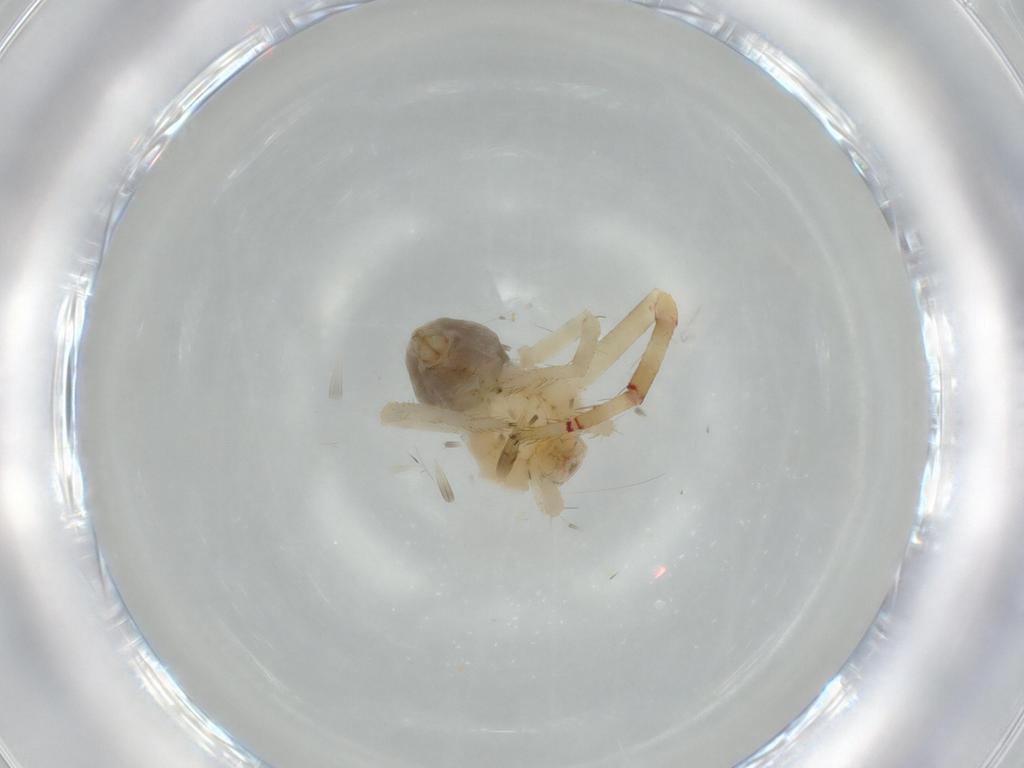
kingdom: Animalia
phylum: Arthropoda
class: Arachnida
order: Araneae
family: Thomisidae
